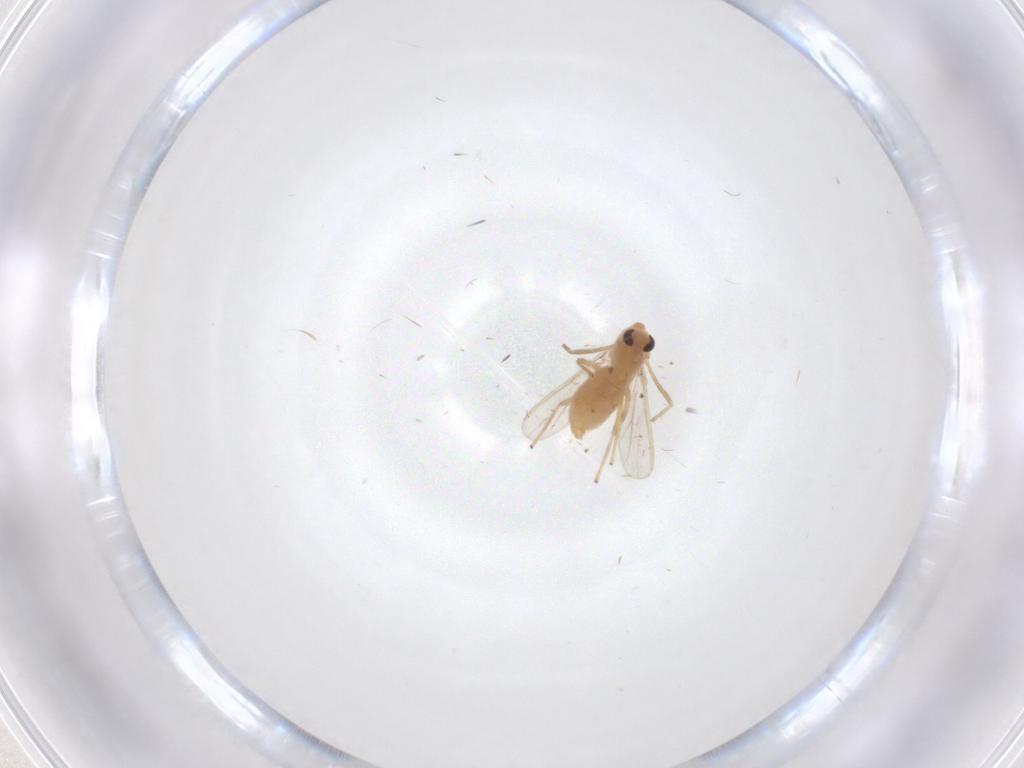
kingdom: Animalia
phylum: Arthropoda
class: Insecta
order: Diptera
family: Chironomidae
